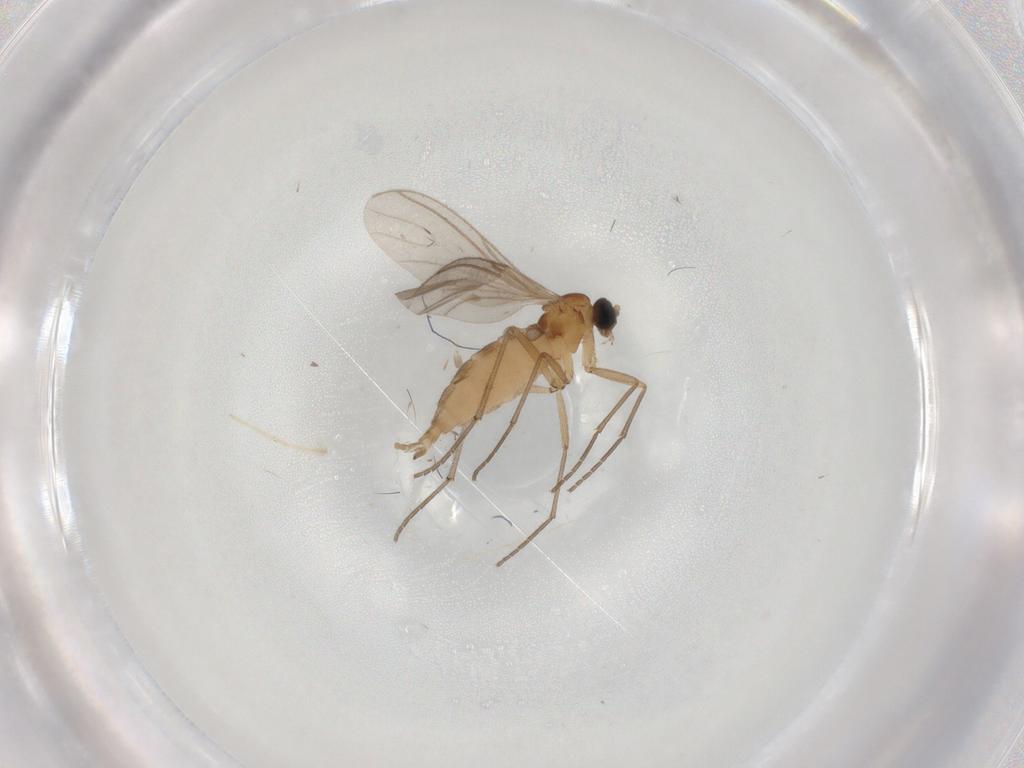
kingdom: Animalia
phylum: Arthropoda
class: Insecta
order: Diptera
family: Sciaridae
